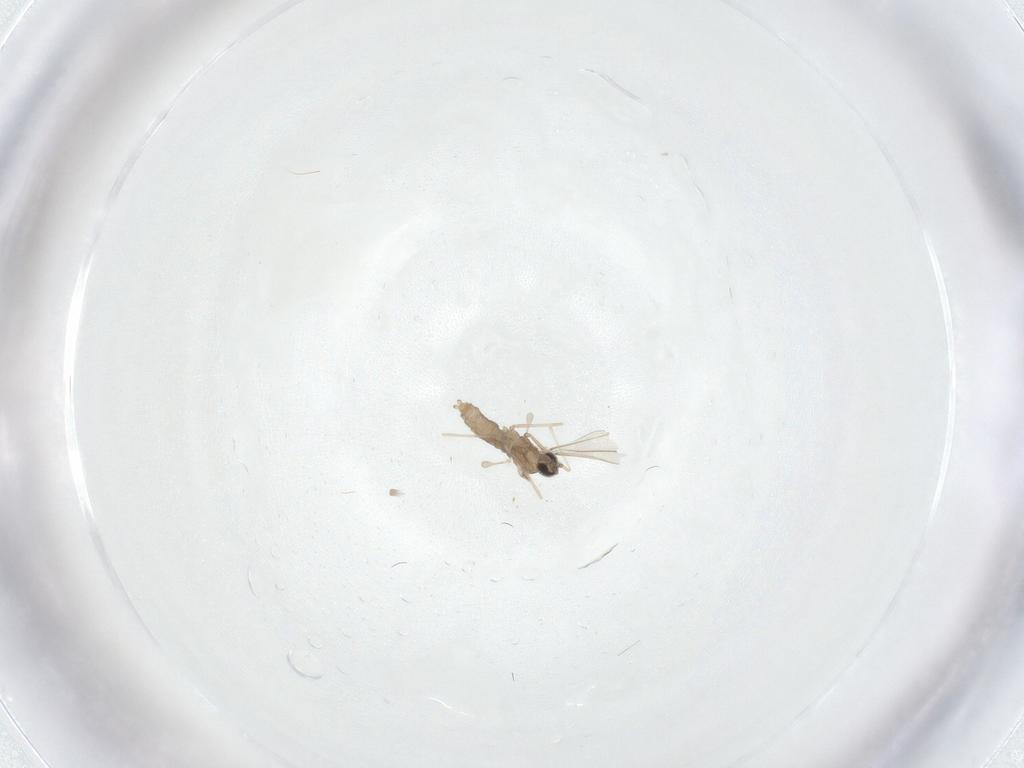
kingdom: Animalia
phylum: Arthropoda
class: Insecta
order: Diptera
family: Cecidomyiidae
